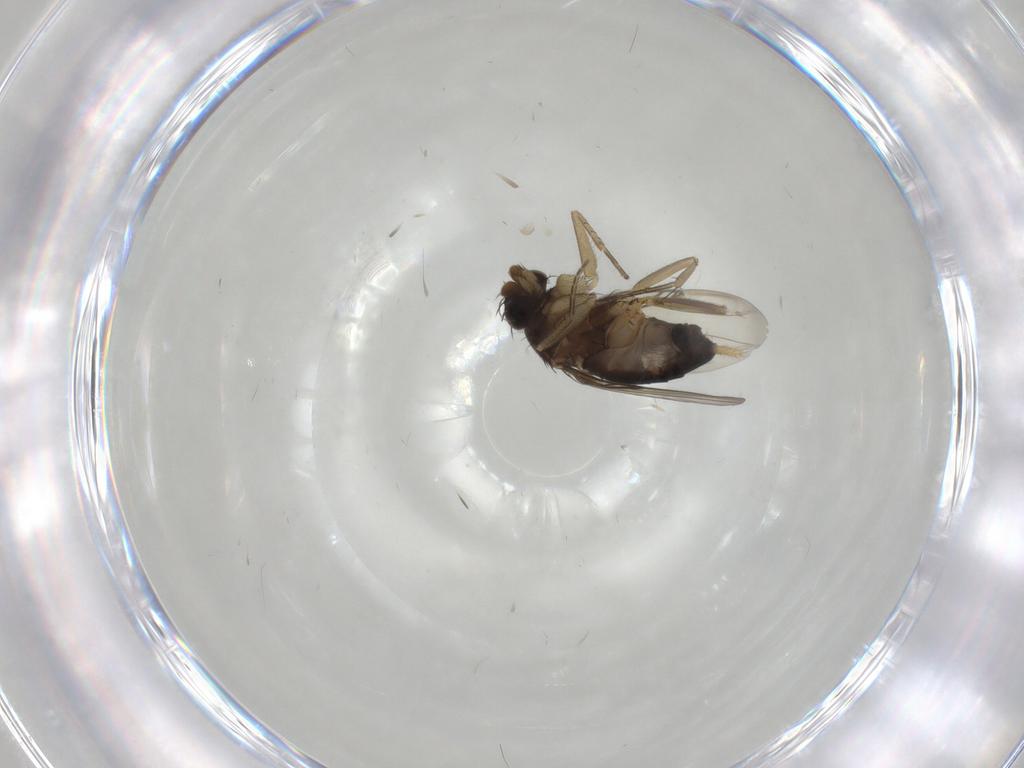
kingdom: Animalia
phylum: Arthropoda
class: Insecta
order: Diptera
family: Phoridae
